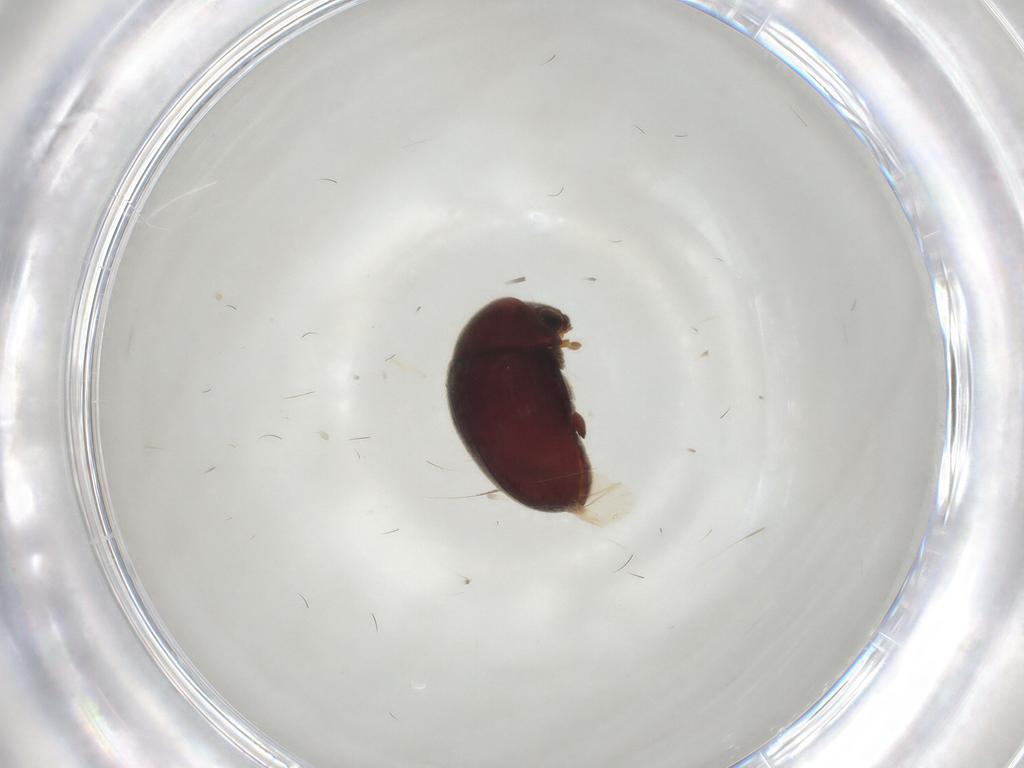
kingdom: Animalia
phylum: Arthropoda
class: Insecta
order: Coleoptera
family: Ptinidae
